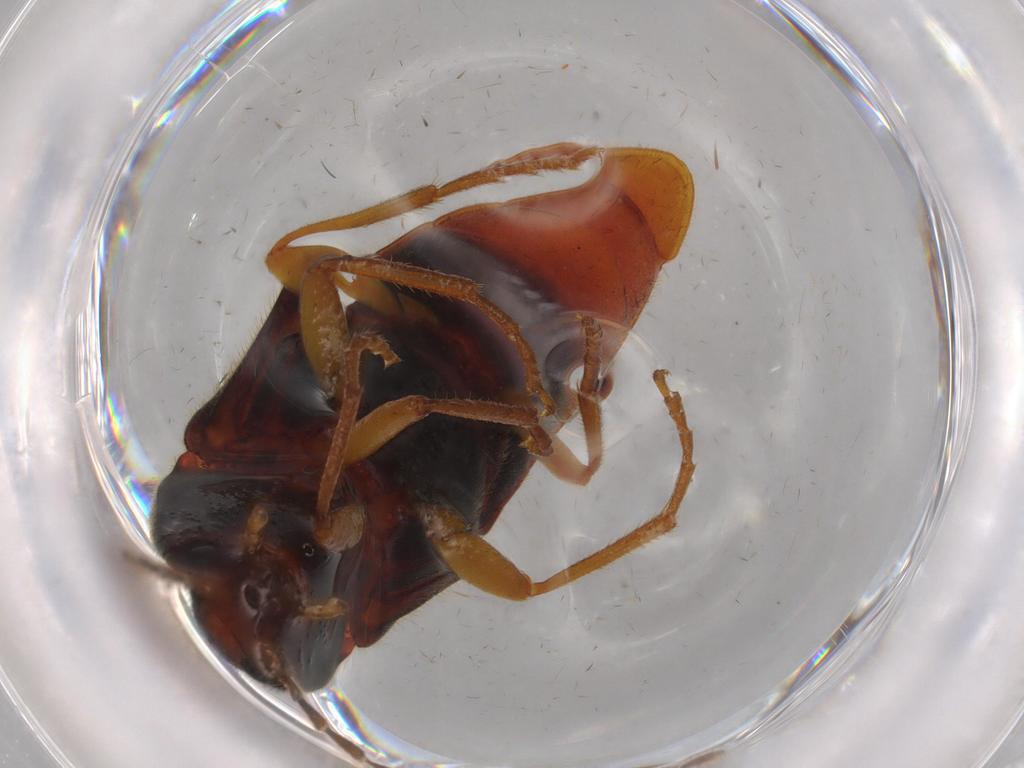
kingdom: Animalia
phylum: Arthropoda
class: Insecta
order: Coleoptera
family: Elateridae
